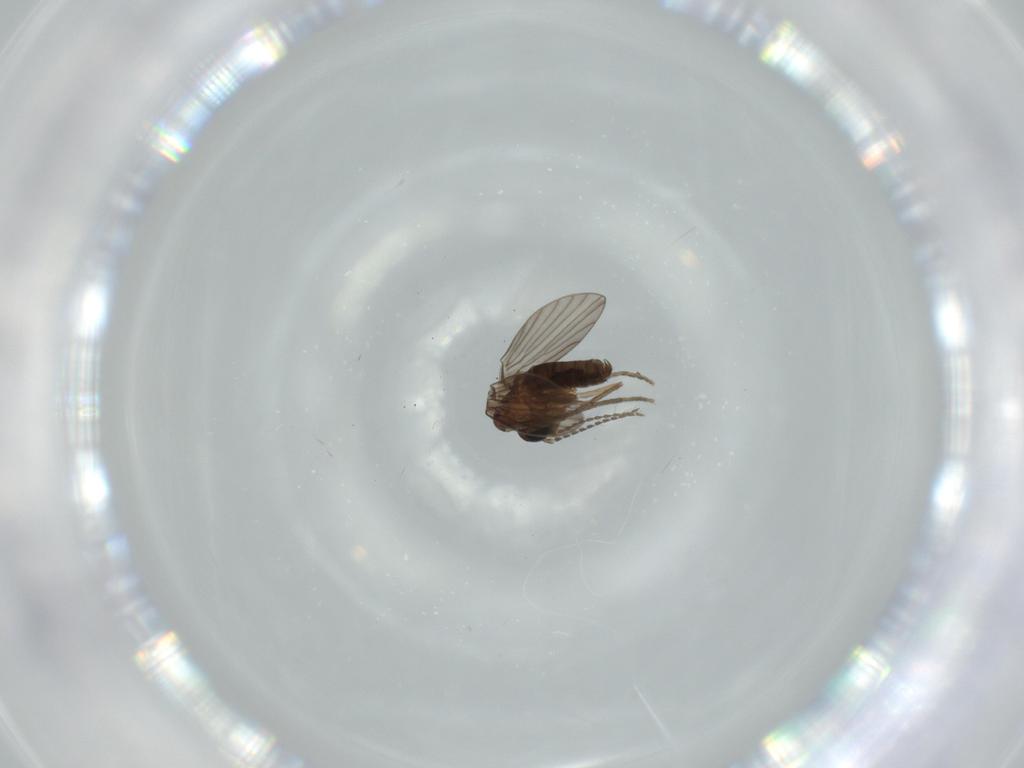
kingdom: Animalia
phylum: Arthropoda
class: Insecta
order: Diptera
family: Psychodidae
